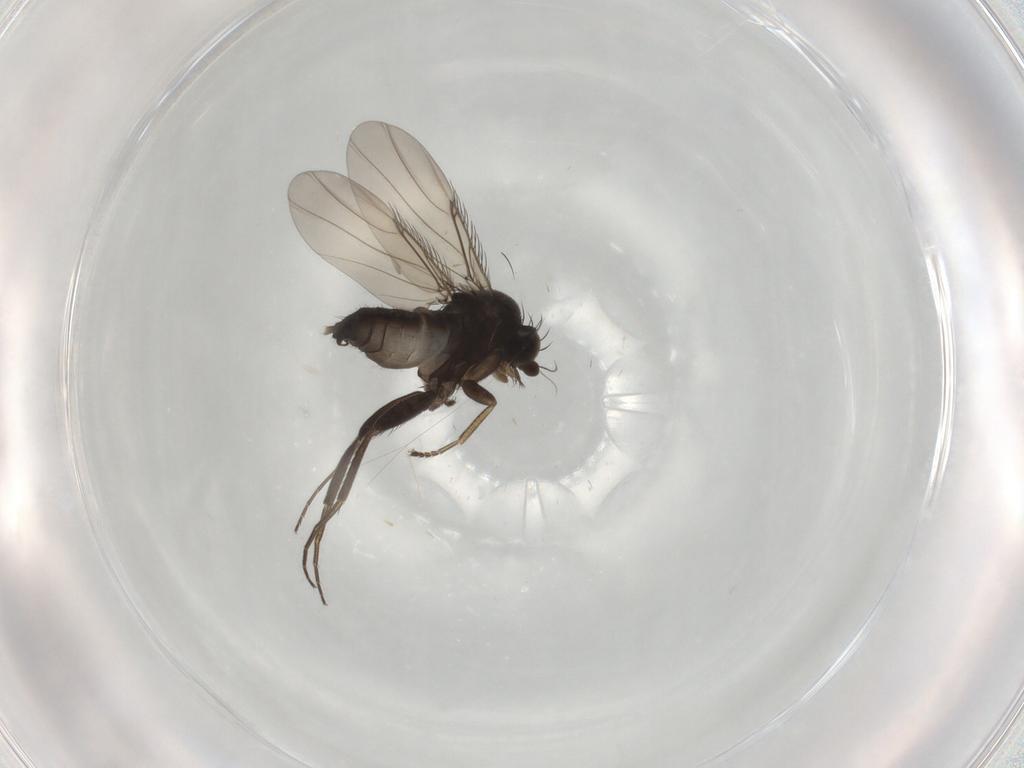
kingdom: Animalia
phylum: Arthropoda
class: Insecta
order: Diptera
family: Phoridae
